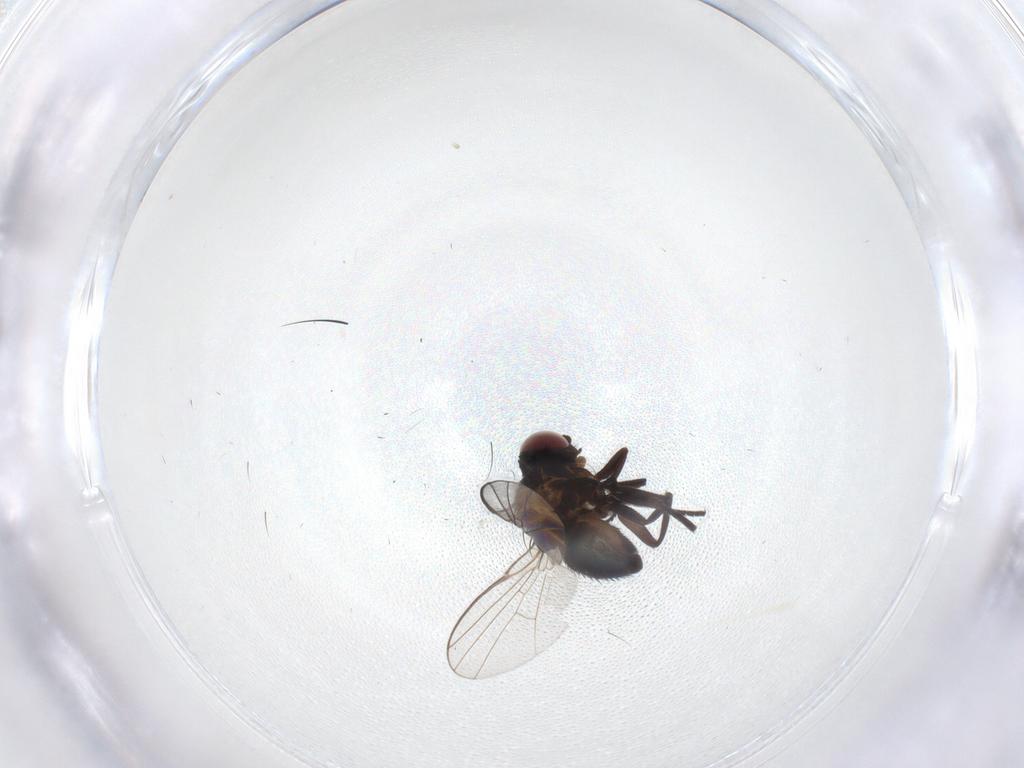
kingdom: Animalia
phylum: Arthropoda
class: Insecta
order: Diptera
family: Agromyzidae
